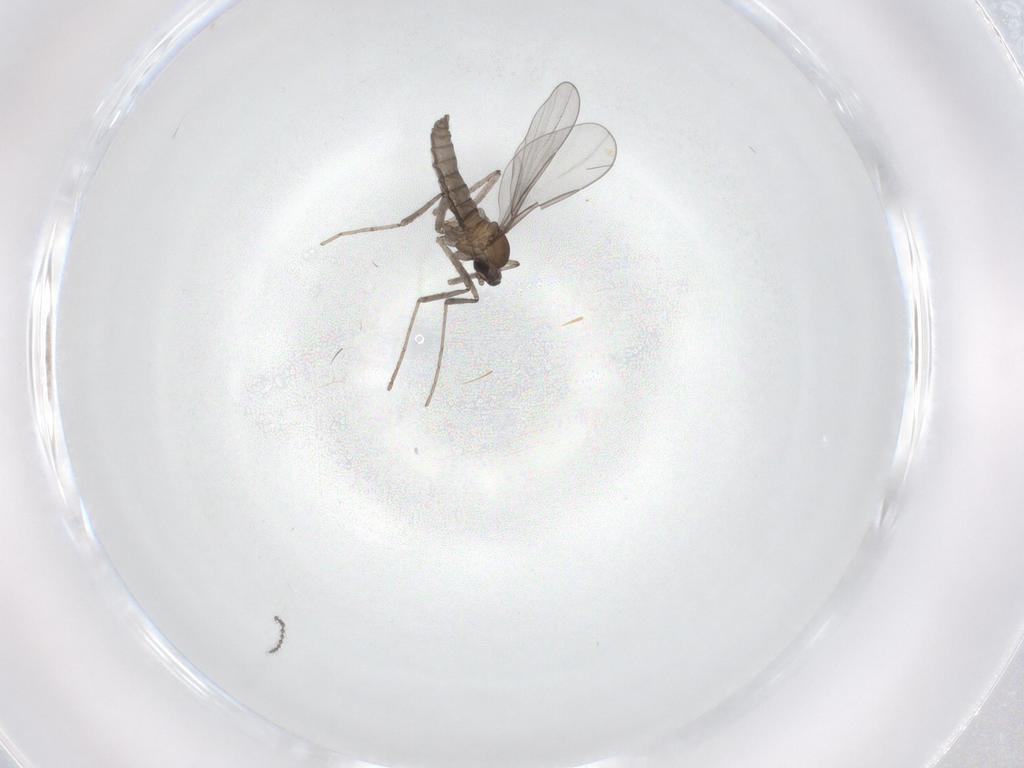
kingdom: Animalia
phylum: Arthropoda
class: Insecta
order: Diptera
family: Cecidomyiidae
